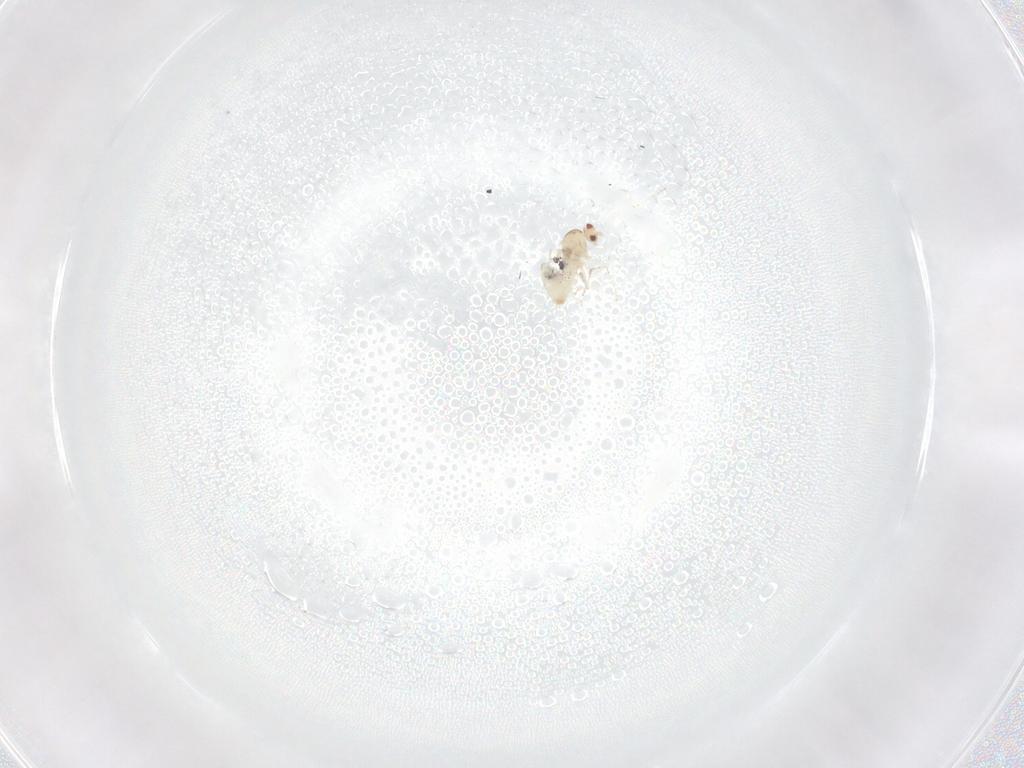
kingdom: Animalia
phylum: Arthropoda
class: Insecta
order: Diptera
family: Cecidomyiidae
